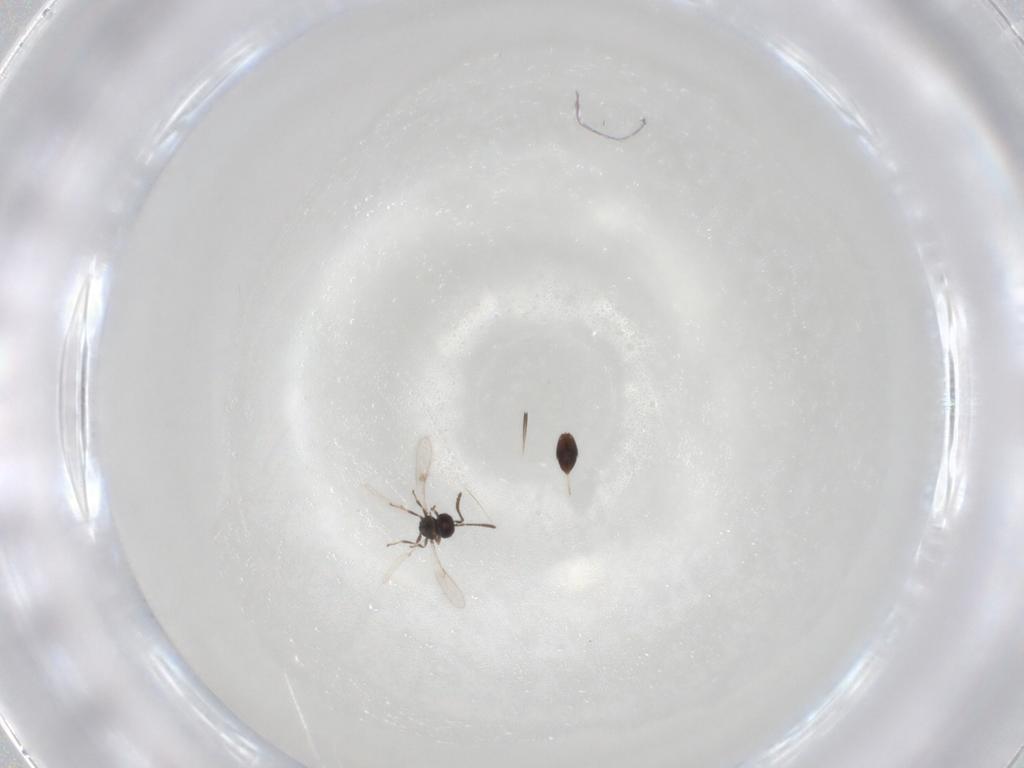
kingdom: Animalia
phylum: Arthropoda
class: Insecta
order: Hymenoptera
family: Scelionidae
